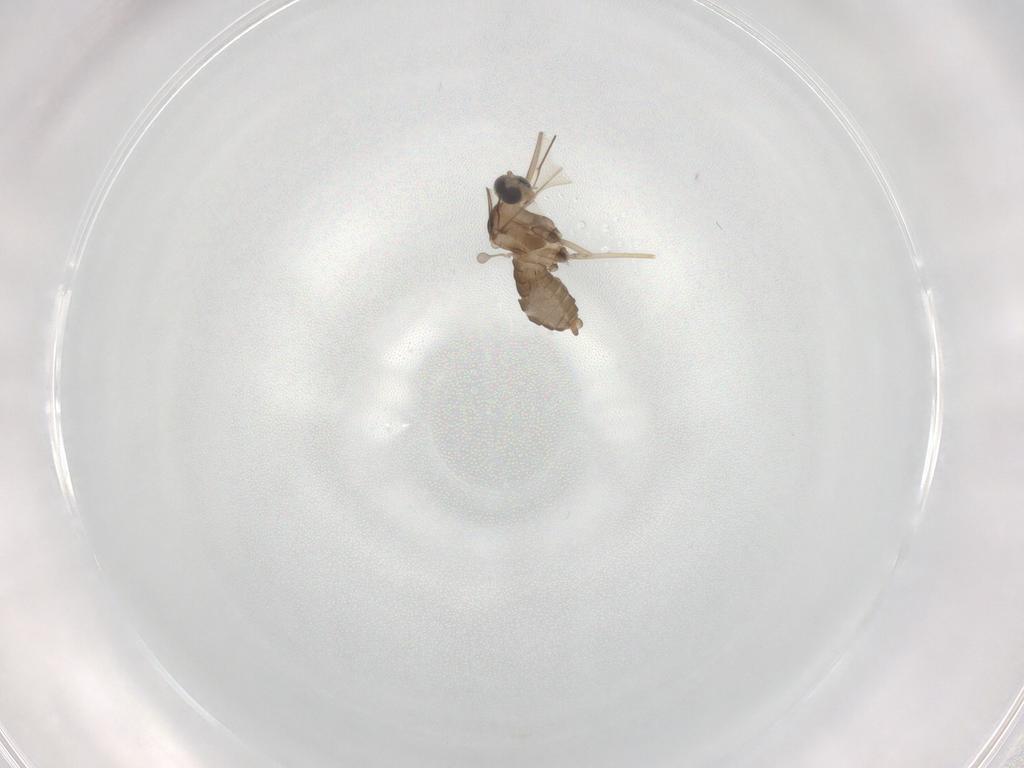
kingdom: Animalia
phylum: Arthropoda
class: Insecta
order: Diptera
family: Cecidomyiidae
